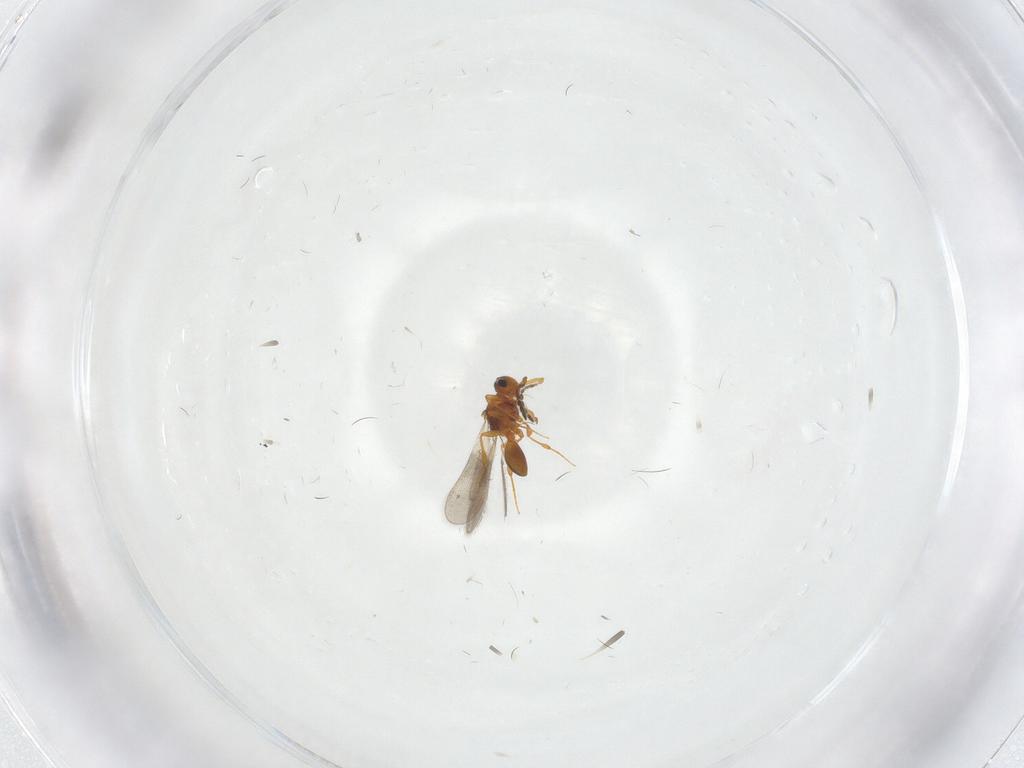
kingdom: Animalia
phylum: Arthropoda
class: Insecta
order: Hymenoptera
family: Platygastridae
